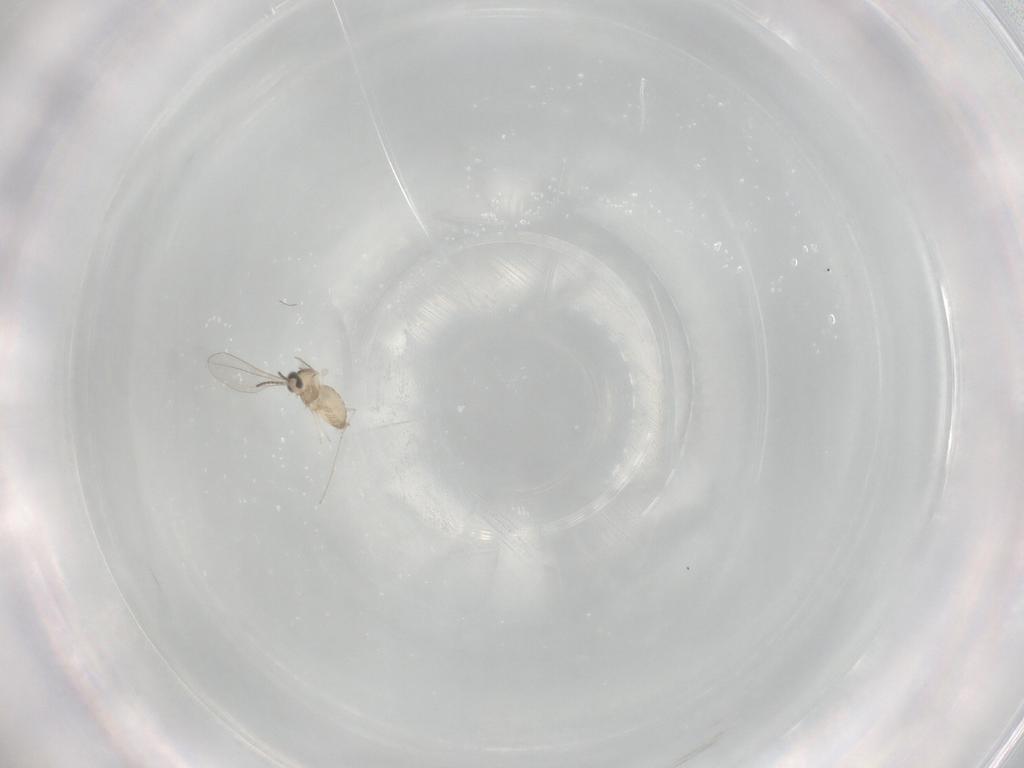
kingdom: Animalia
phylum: Arthropoda
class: Insecta
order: Diptera
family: Cecidomyiidae
